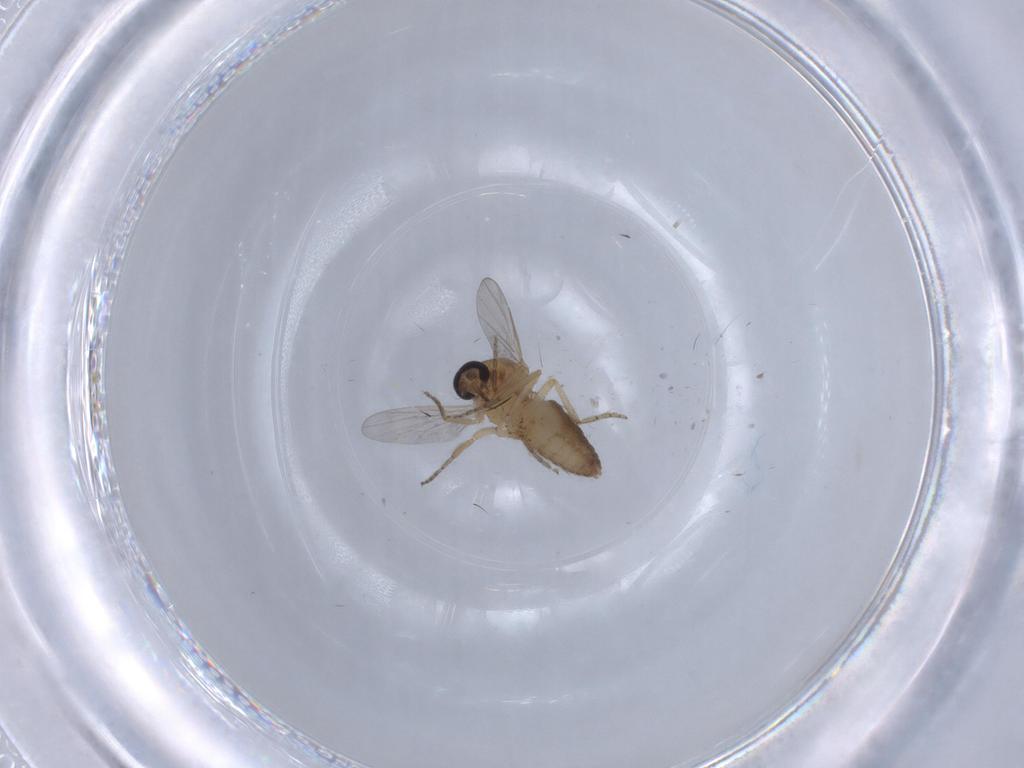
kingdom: Animalia
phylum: Arthropoda
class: Insecta
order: Diptera
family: Ceratopogonidae
